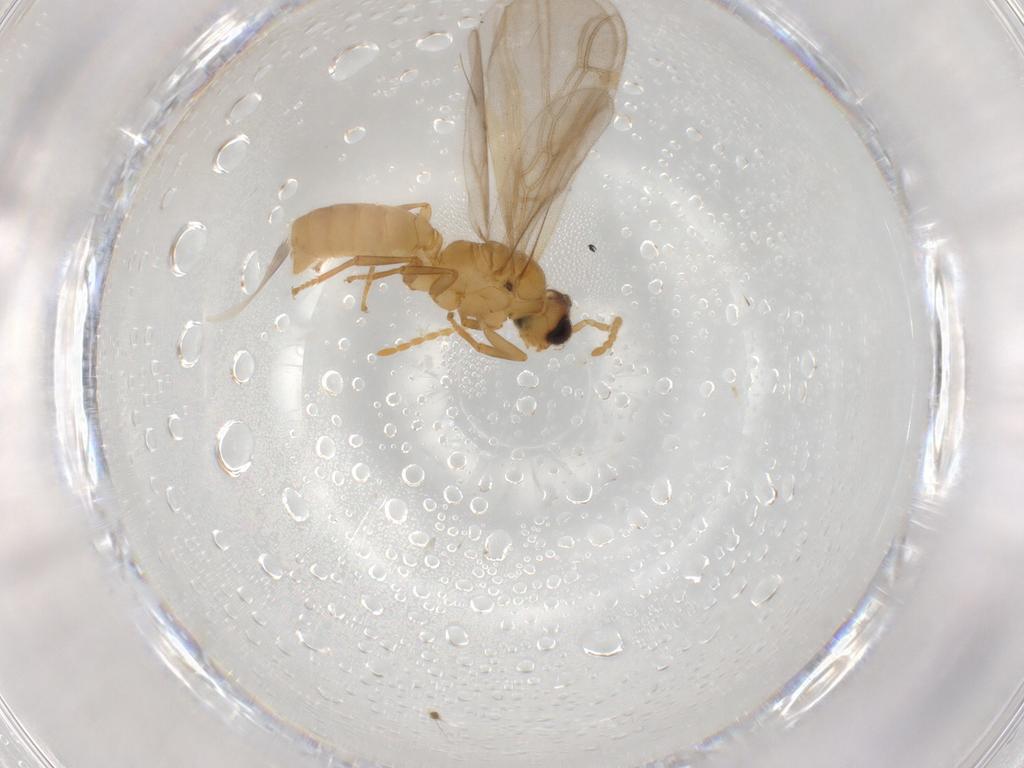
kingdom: Animalia
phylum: Arthropoda
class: Insecta
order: Hymenoptera
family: Formicidae
